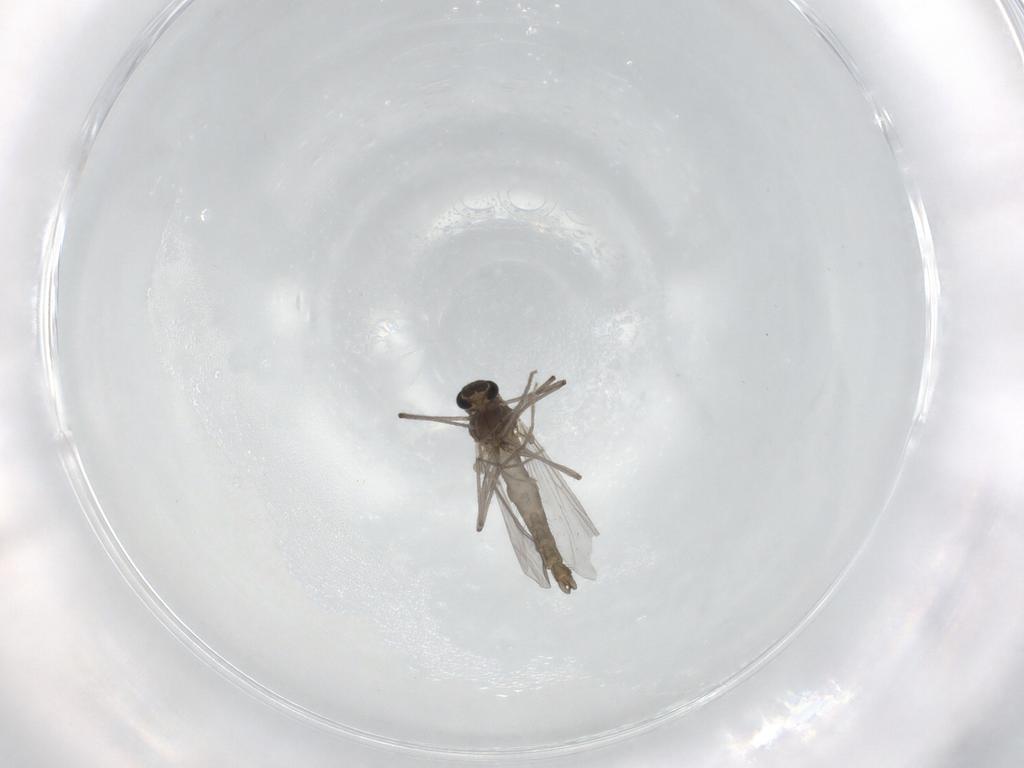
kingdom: Animalia
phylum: Arthropoda
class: Insecta
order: Diptera
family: Chironomidae
